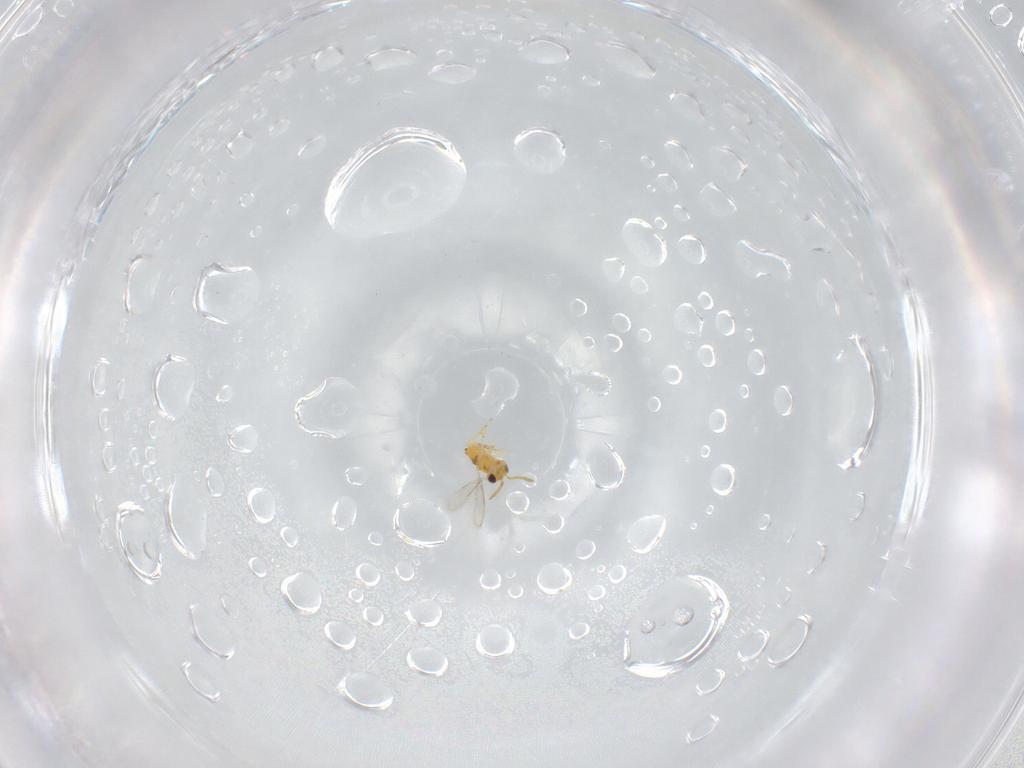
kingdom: Animalia
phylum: Arthropoda
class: Insecta
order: Hymenoptera
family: Aphelinidae
